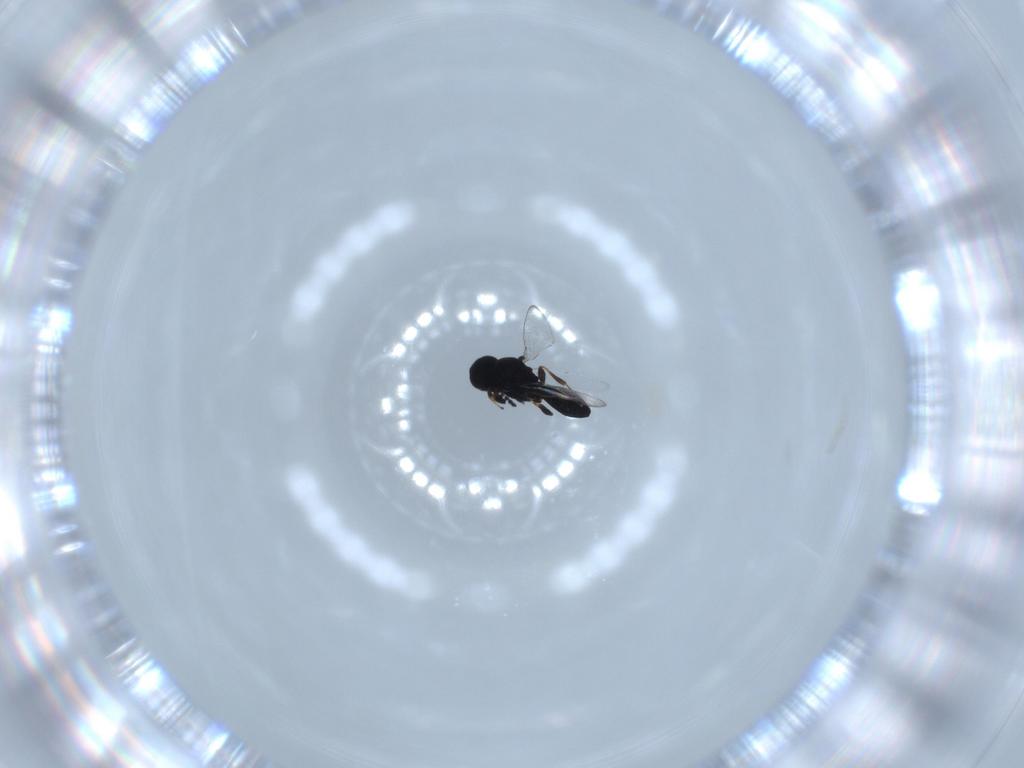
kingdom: Animalia
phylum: Arthropoda
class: Insecta
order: Hymenoptera
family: Platygastridae
